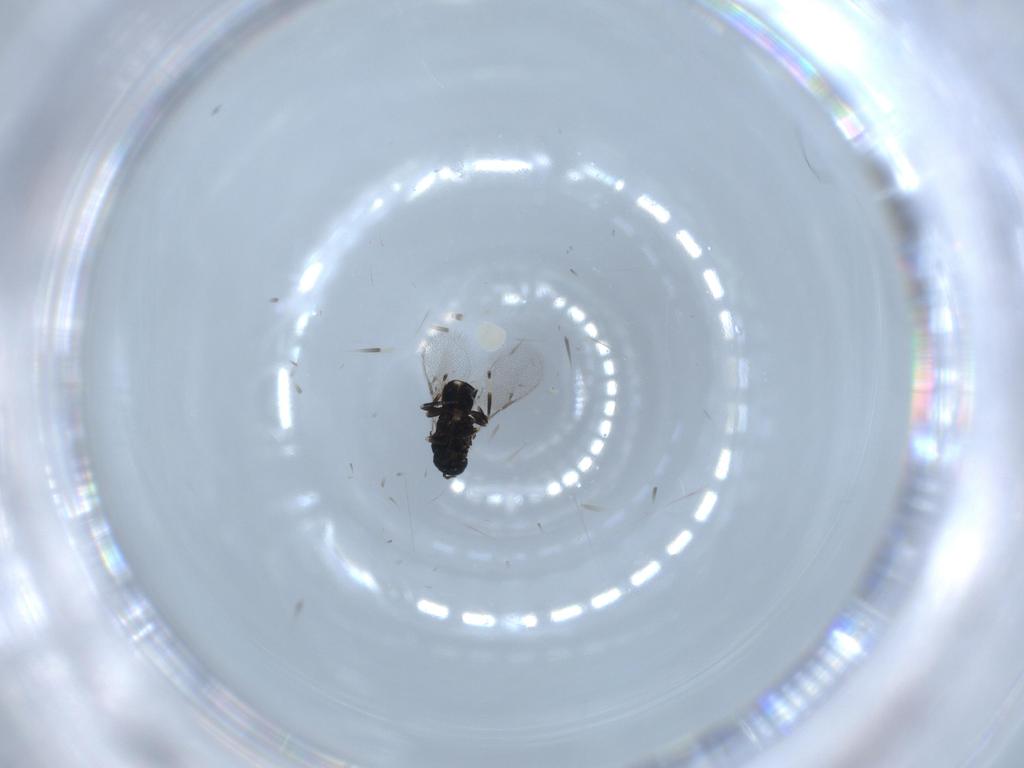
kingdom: Animalia
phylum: Arthropoda
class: Insecta
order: Hymenoptera
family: Eulophidae
